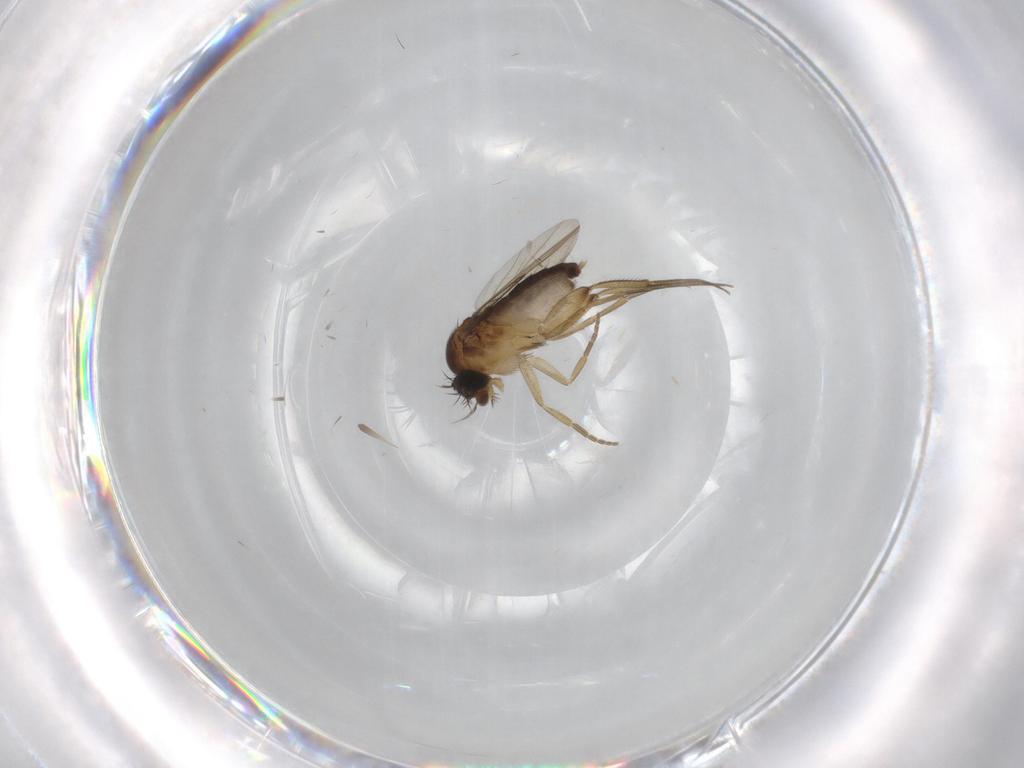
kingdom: Animalia
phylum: Arthropoda
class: Insecta
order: Diptera
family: Phoridae
